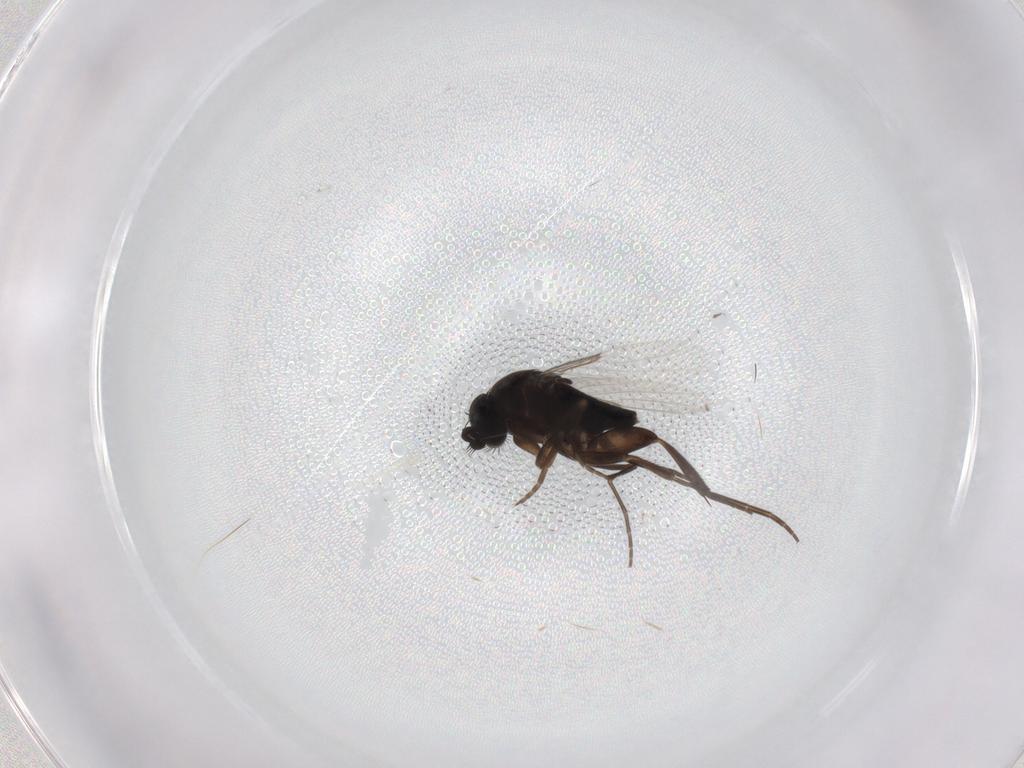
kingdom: Animalia
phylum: Arthropoda
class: Insecta
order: Diptera
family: Phoridae
